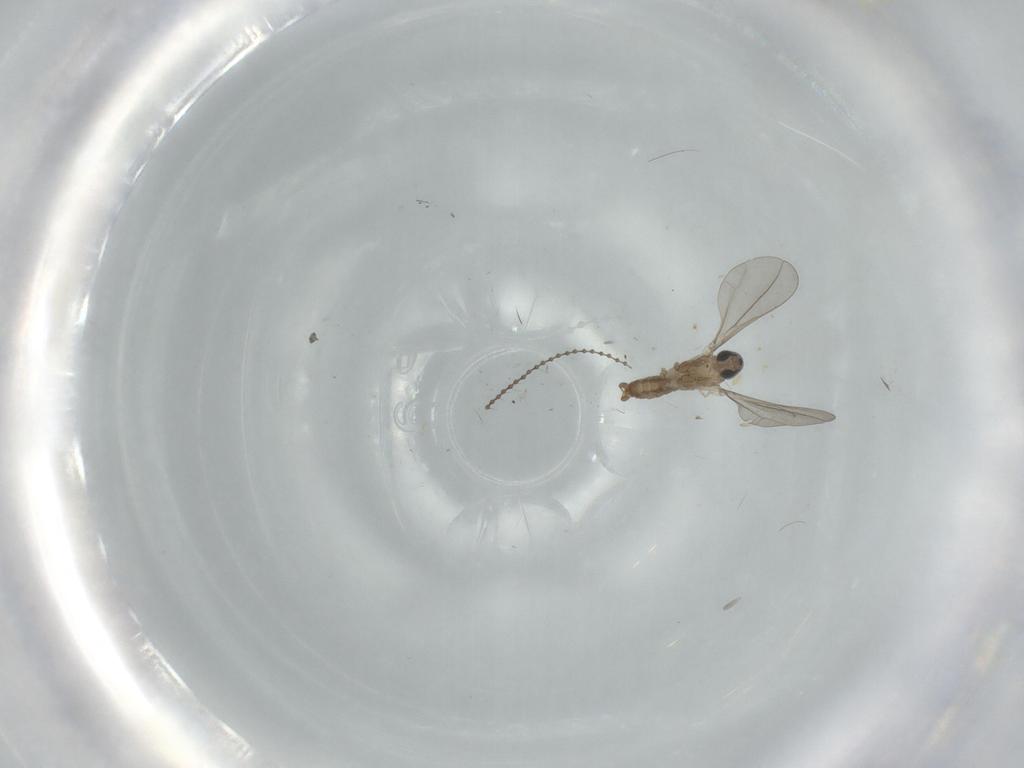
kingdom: Animalia
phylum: Arthropoda
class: Insecta
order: Diptera
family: Cecidomyiidae
